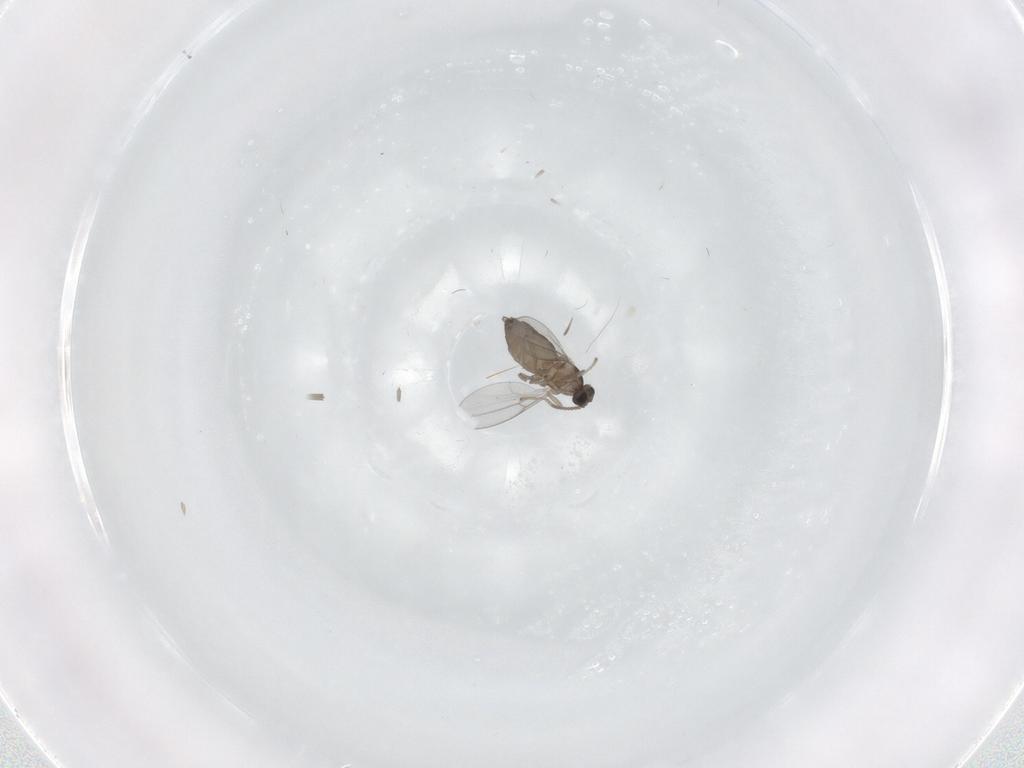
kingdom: Animalia
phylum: Arthropoda
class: Insecta
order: Diptera
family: Cecidomyiidae
